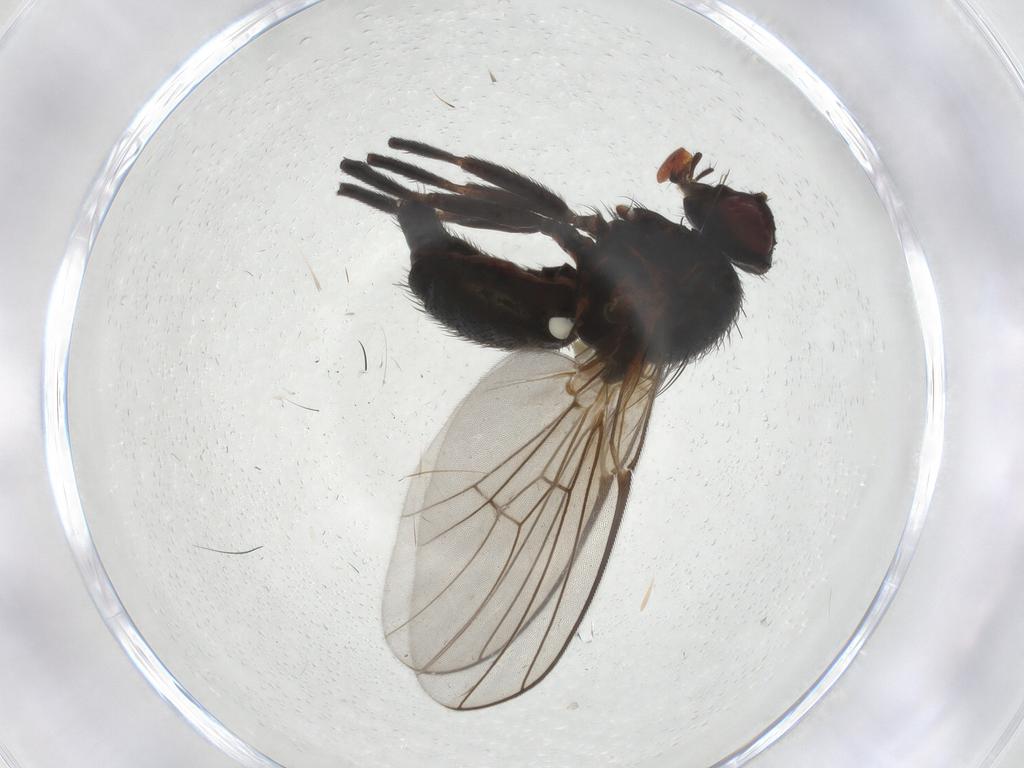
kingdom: Animalia
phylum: Arthropoda
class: Insecta
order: Diptera
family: Agromyzidae
